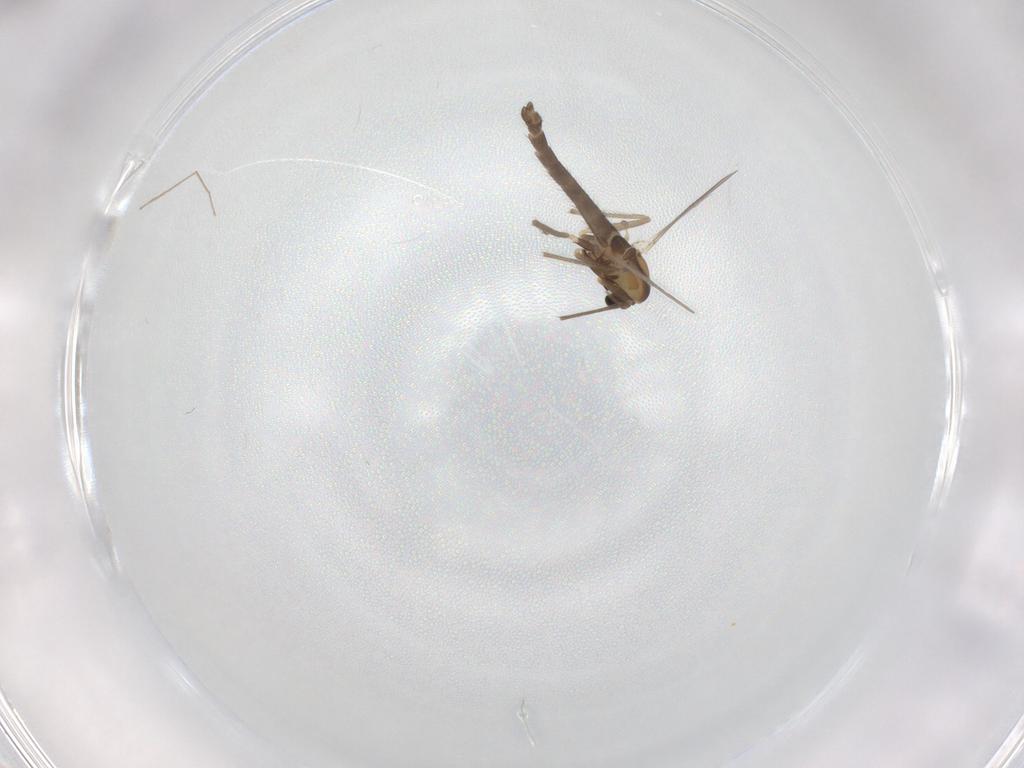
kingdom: Animalia
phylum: Arthropoda
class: Insecta
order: Diptera
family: Chironomidae
